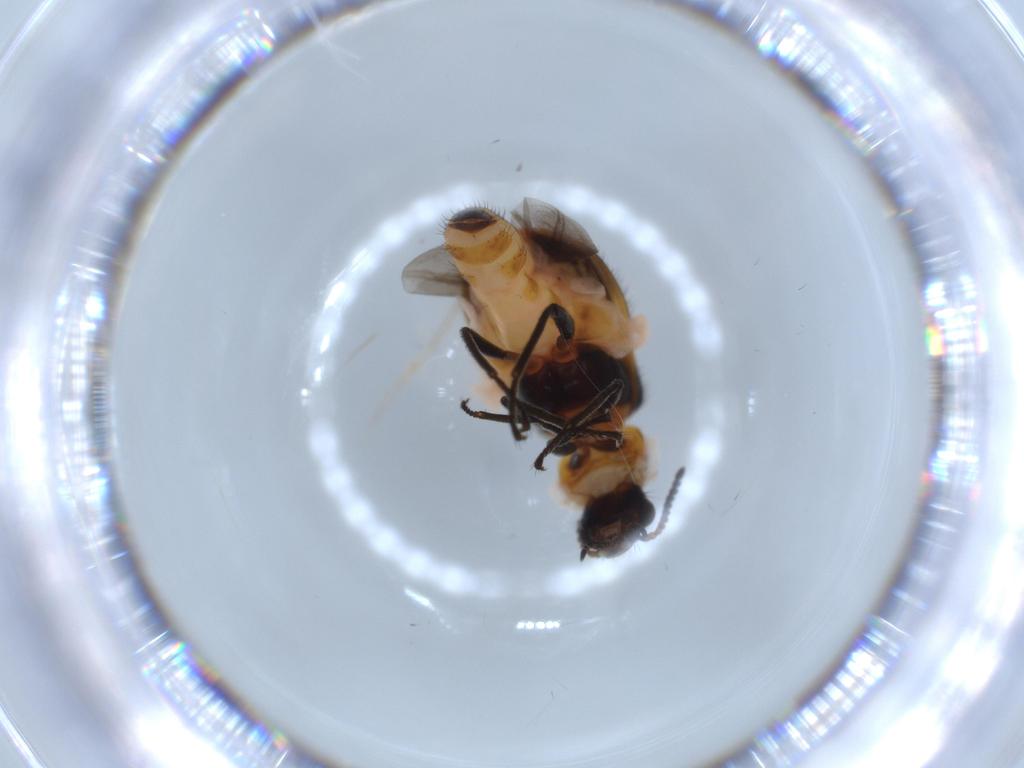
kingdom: Animalia
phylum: Arthropoda
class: Insecta
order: Coleoptera
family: Melyridae
